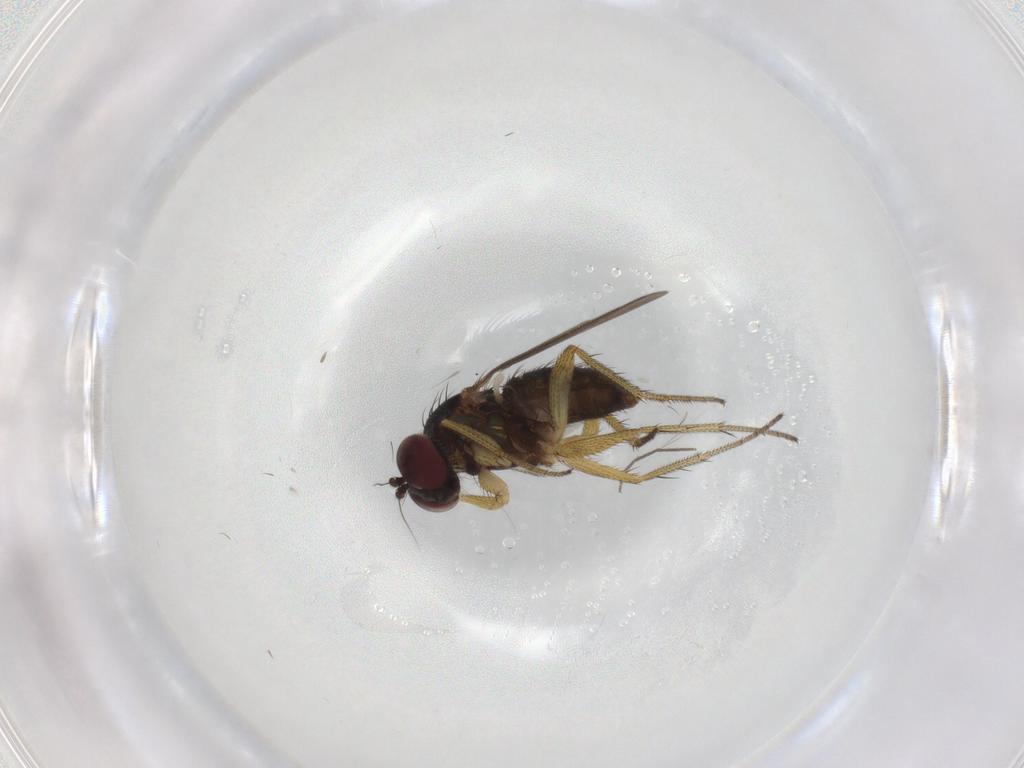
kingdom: Animalia
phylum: Arthropoda
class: Insecta
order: Diptera
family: Dolichopodidae
